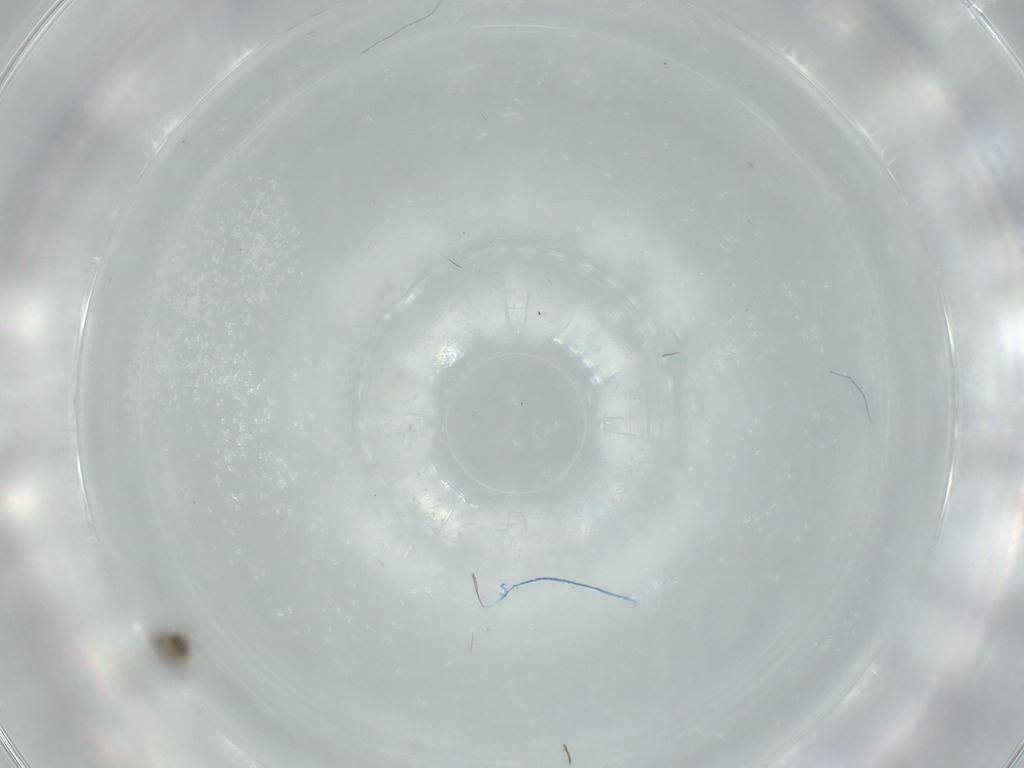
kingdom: Animalia
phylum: Arthropoda
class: Insecta
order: Diptera
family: Cecidomyiidae
